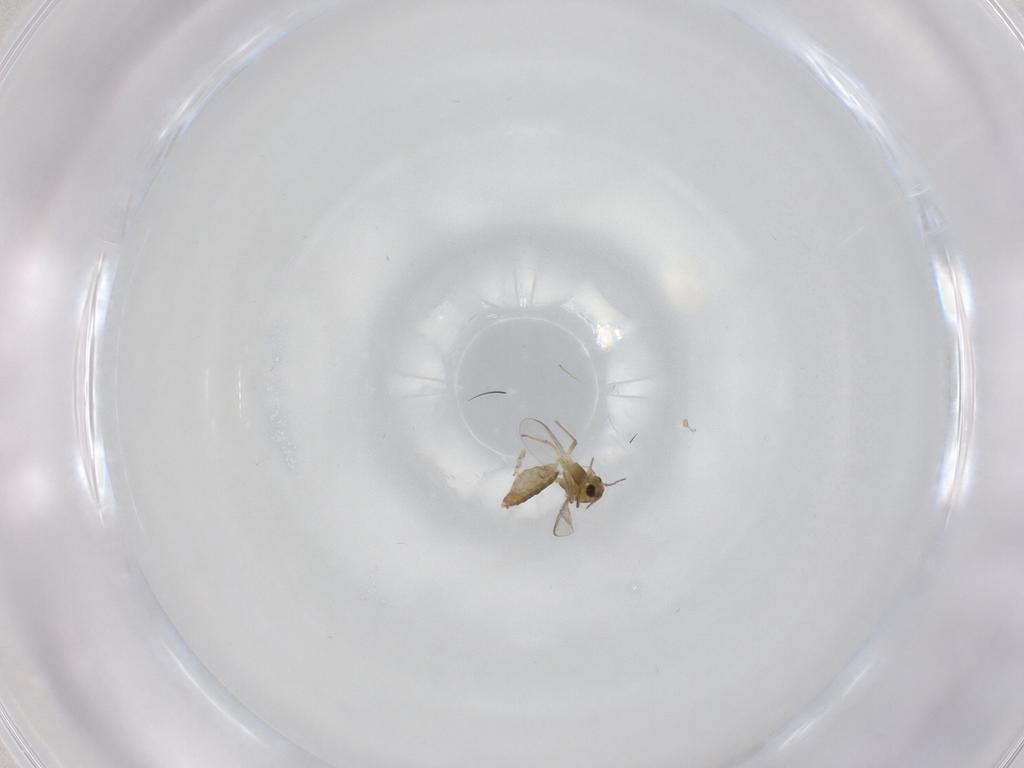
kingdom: Animalia
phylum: Arthropoda
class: Insecta
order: Diptera
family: Chironomidae
